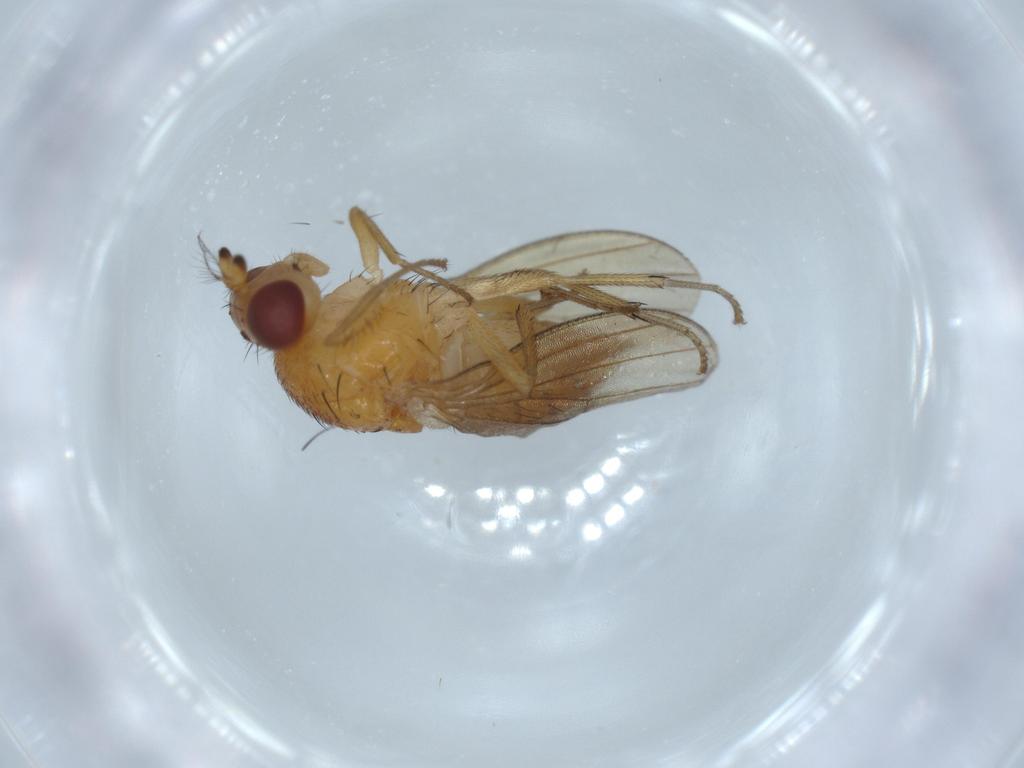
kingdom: Animalia
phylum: Arthropoda
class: Insecta
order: Diptera
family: Lauxaniidae
